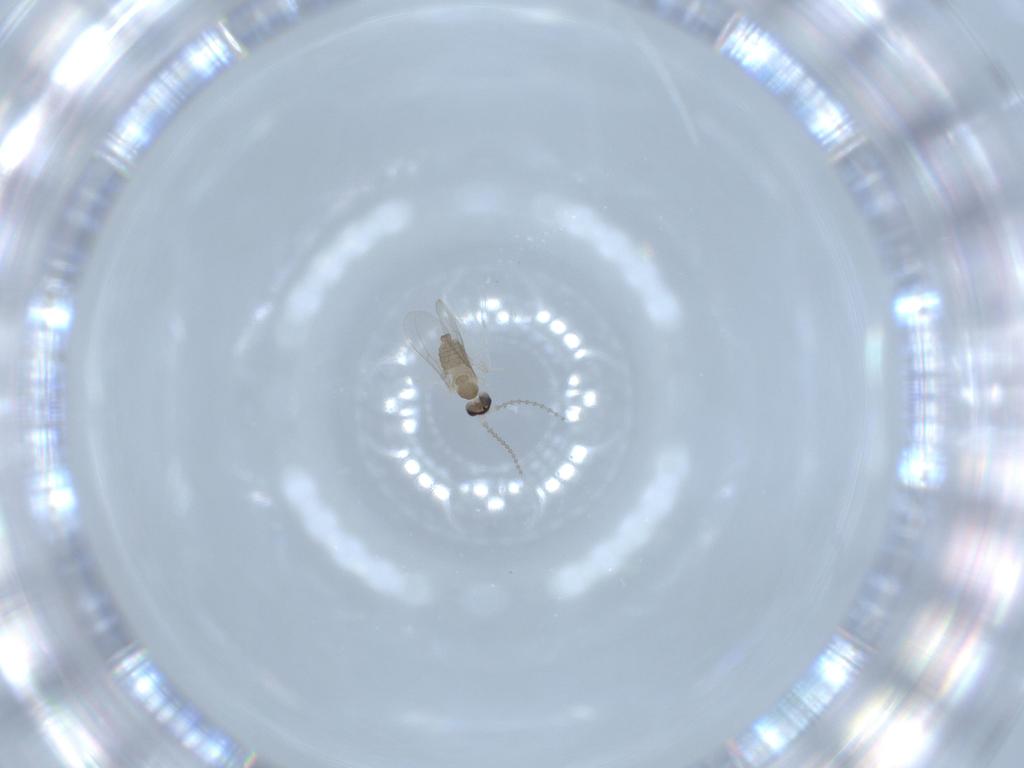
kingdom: Animalia
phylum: Arthropoda
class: Insecta
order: Diptera
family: Cecidomyiidae
